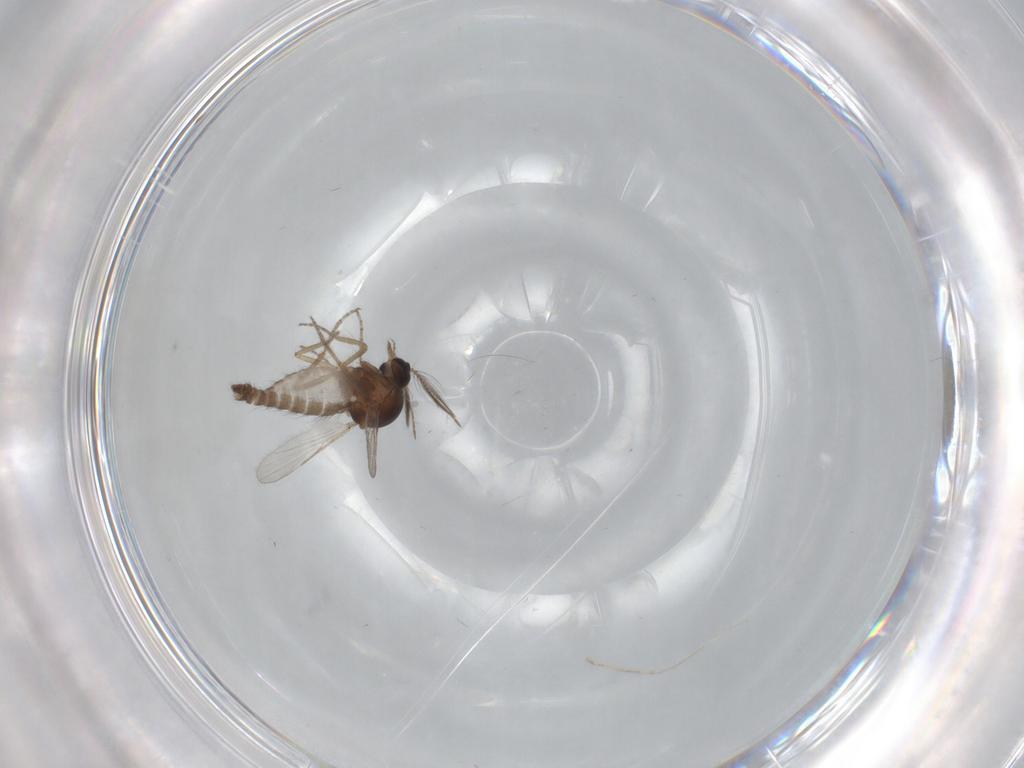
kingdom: Animalia
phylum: Arthropoda
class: Insecta
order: Diptera
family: Phoridae
